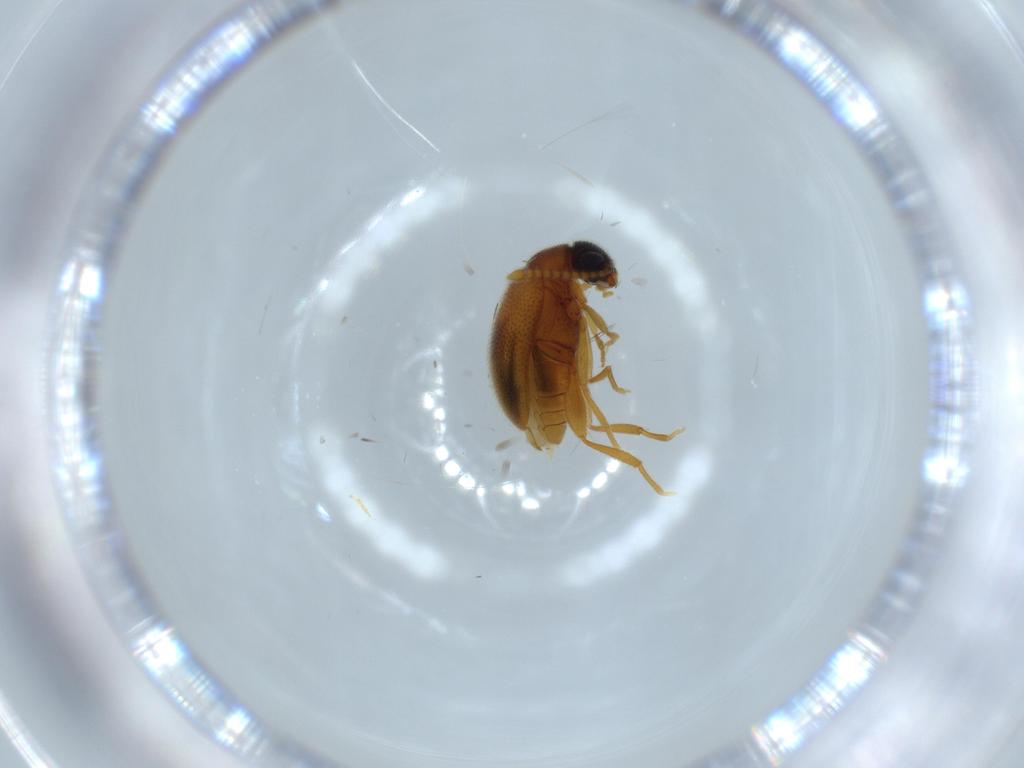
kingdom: Animalia
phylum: Arthropoda
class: Insecta
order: Coleoptera
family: Aderidae
